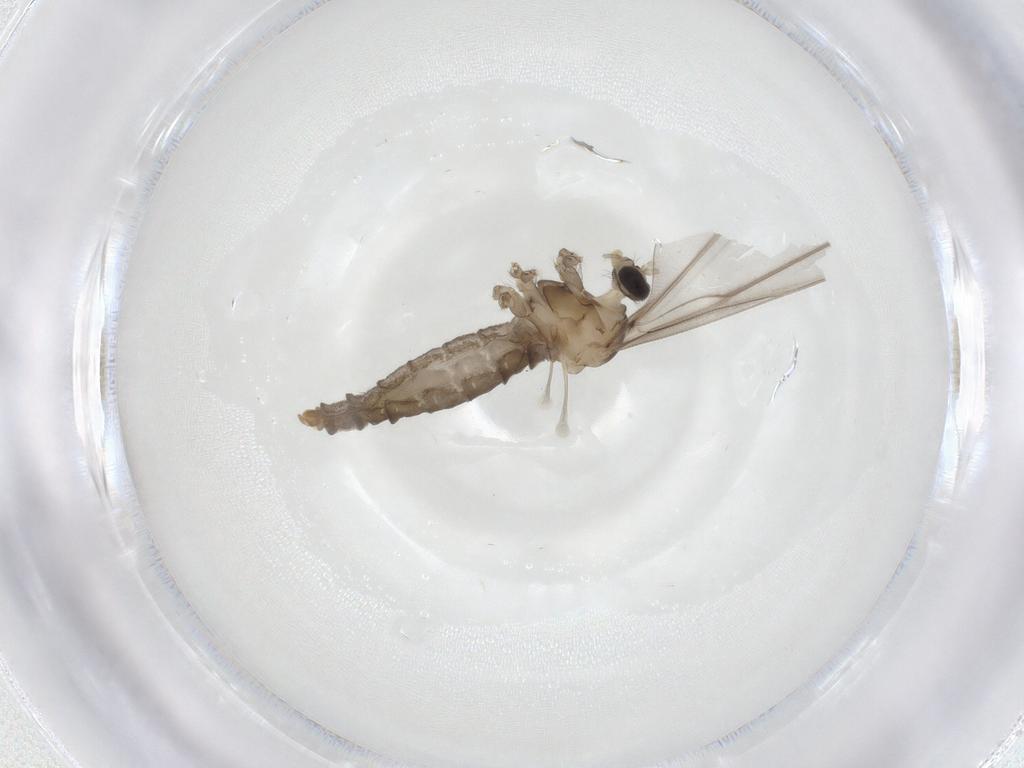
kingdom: Animalia
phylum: Arthropoda
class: Insecta
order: Diptera
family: Cecidomyiidae
